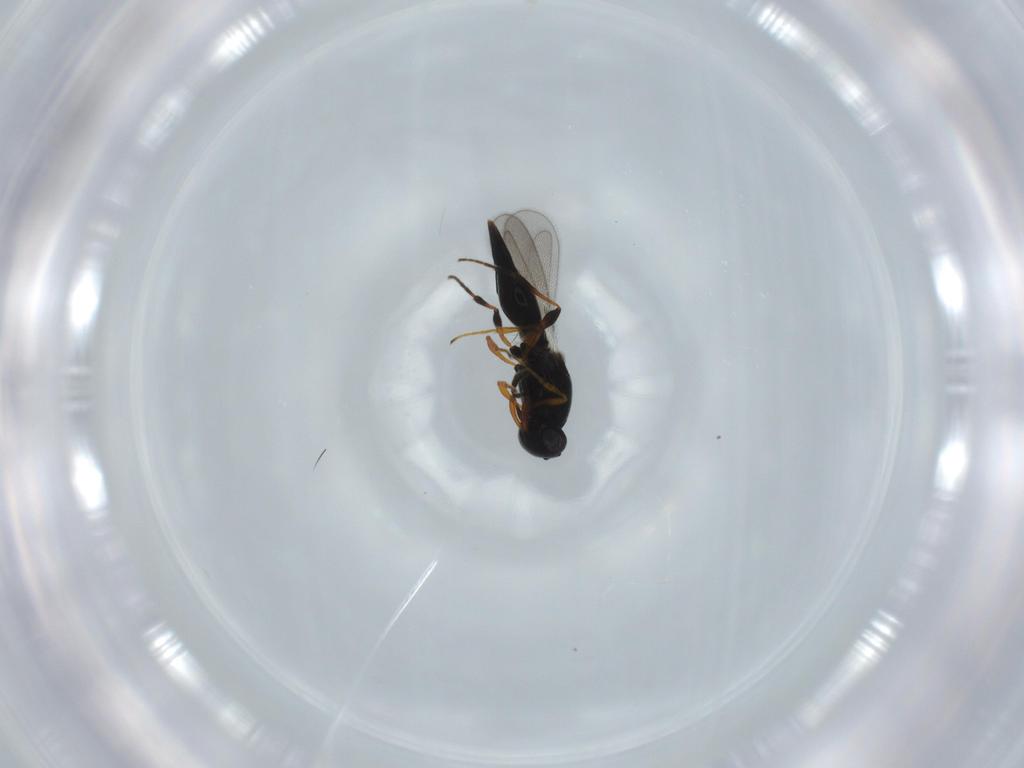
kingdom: Animalia
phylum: Arthropoda
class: Insecta
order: Hymenoptera
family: Platygastridae
